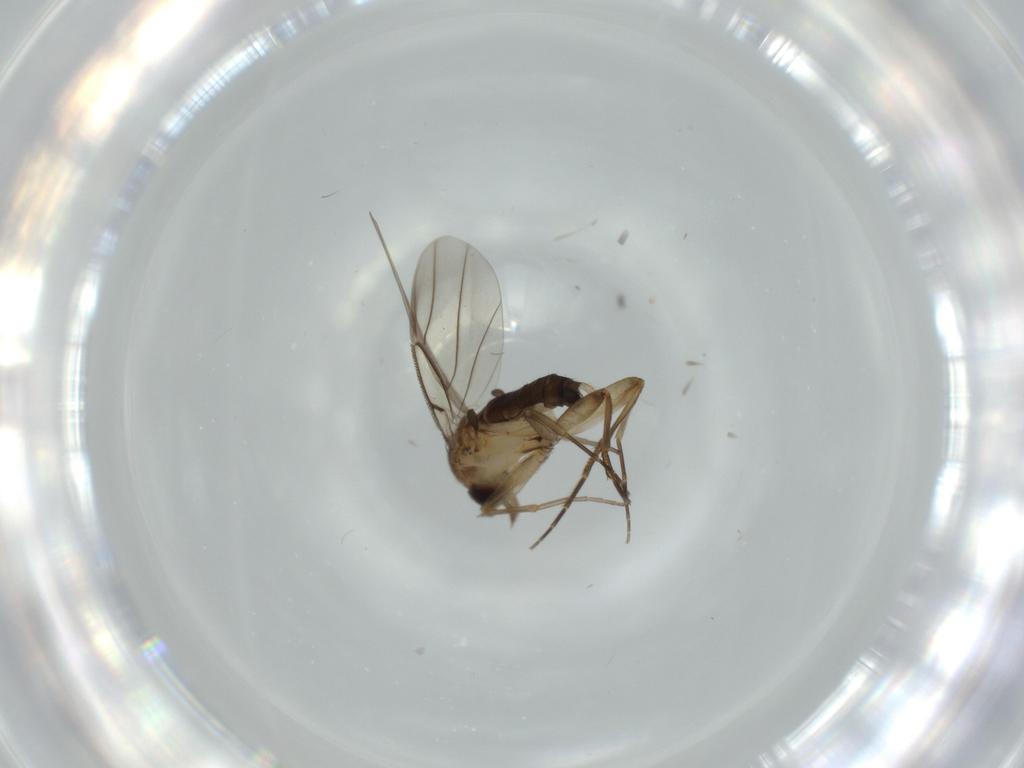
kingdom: Animalia
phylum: Arthropoda
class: Insecta
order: Diptera
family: Phoridae
